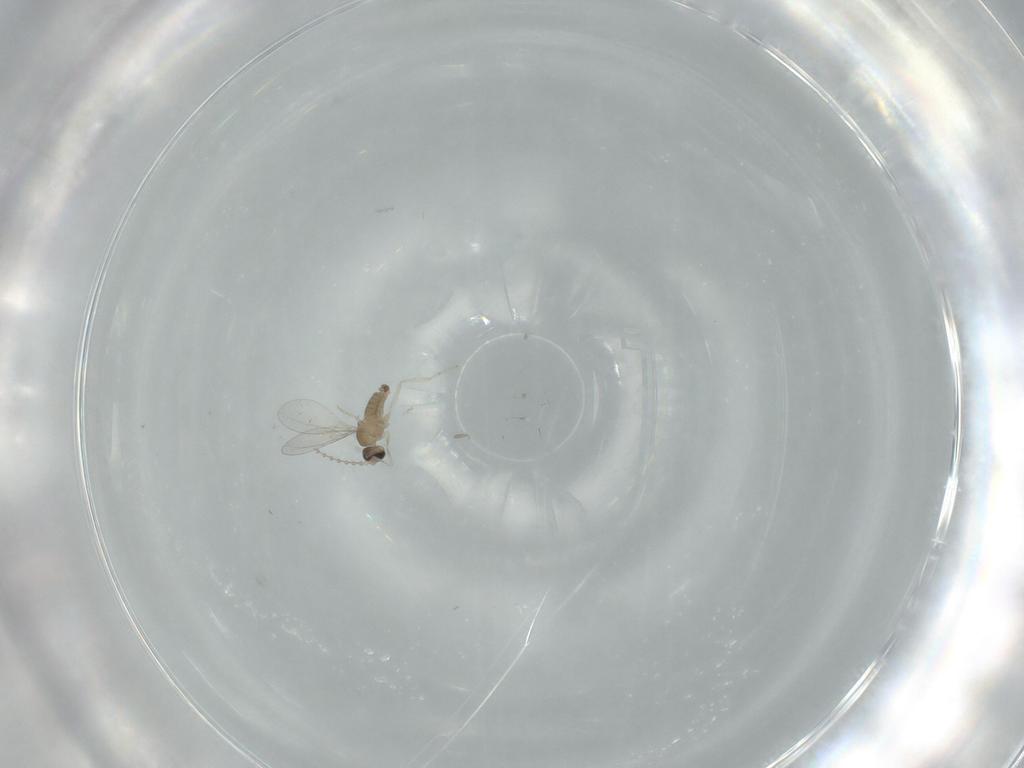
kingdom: Animalia
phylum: Arthropoda
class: Insecta
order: Diptera
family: Cecidomyiidae
